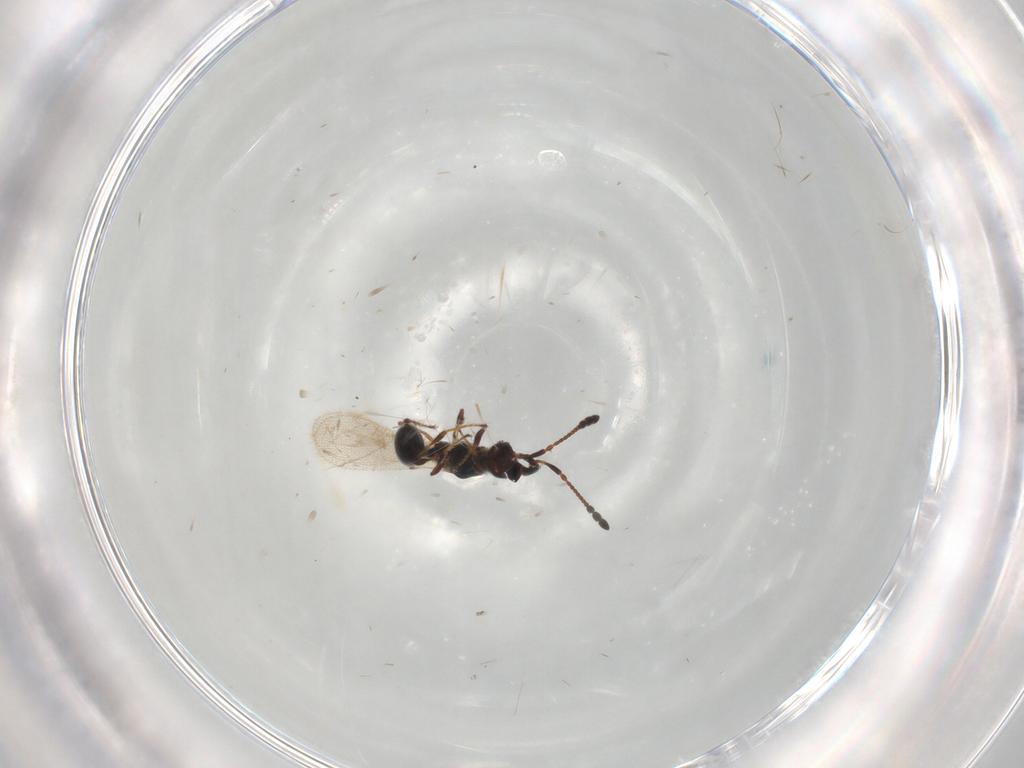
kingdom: Animalia
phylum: Arthropoda
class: Insecta
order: Hymenoptera
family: Diapriidae
